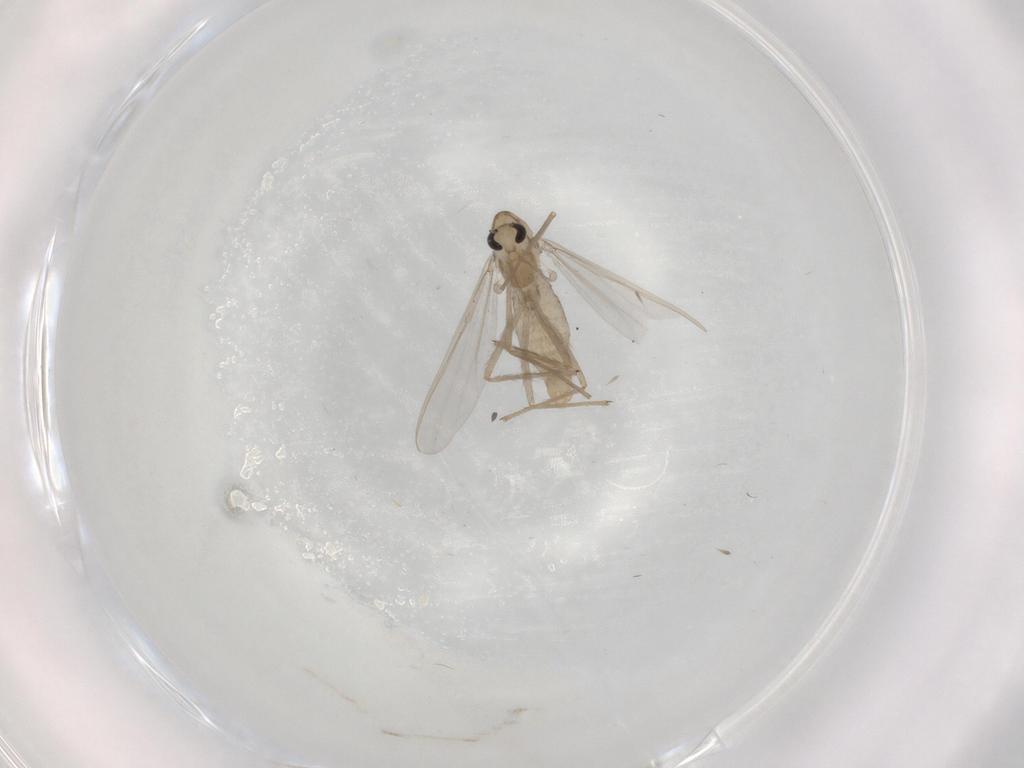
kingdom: Animalia
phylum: Arthropoda
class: Insecta
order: Diptera
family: Chironomidae
